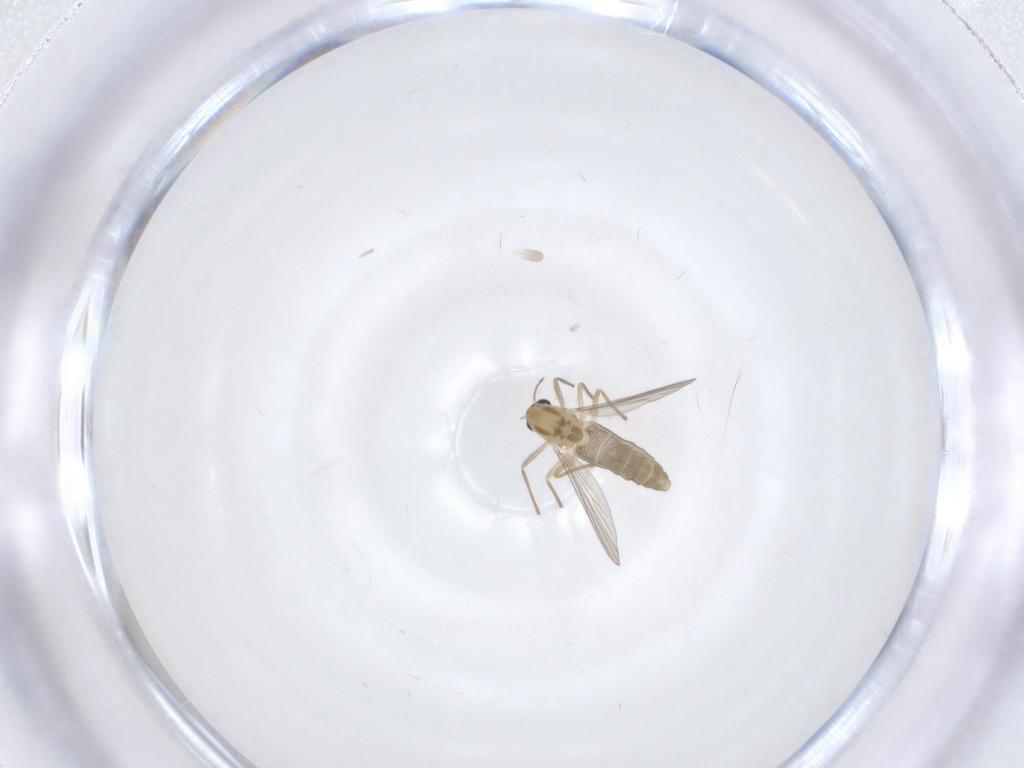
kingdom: Animalia
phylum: Arthropoda
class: Insecta
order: Diptera
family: Chironomidae
